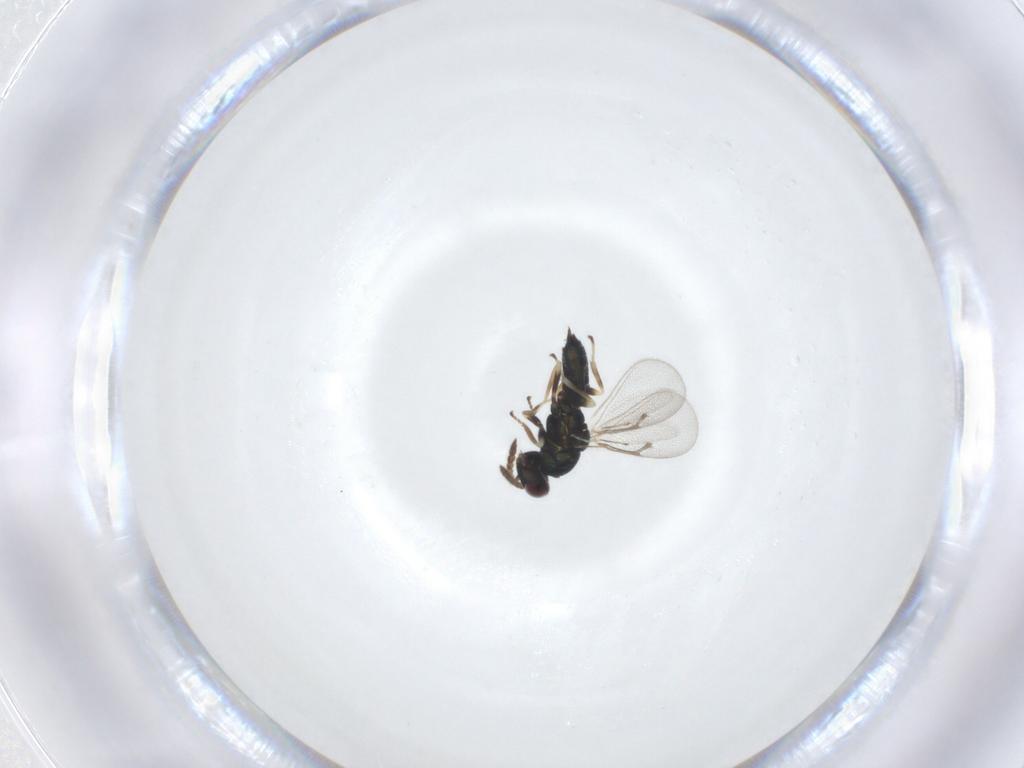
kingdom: Animalia
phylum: Arthropoda
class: Insecta
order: Hymenoptera
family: Eulophidae
